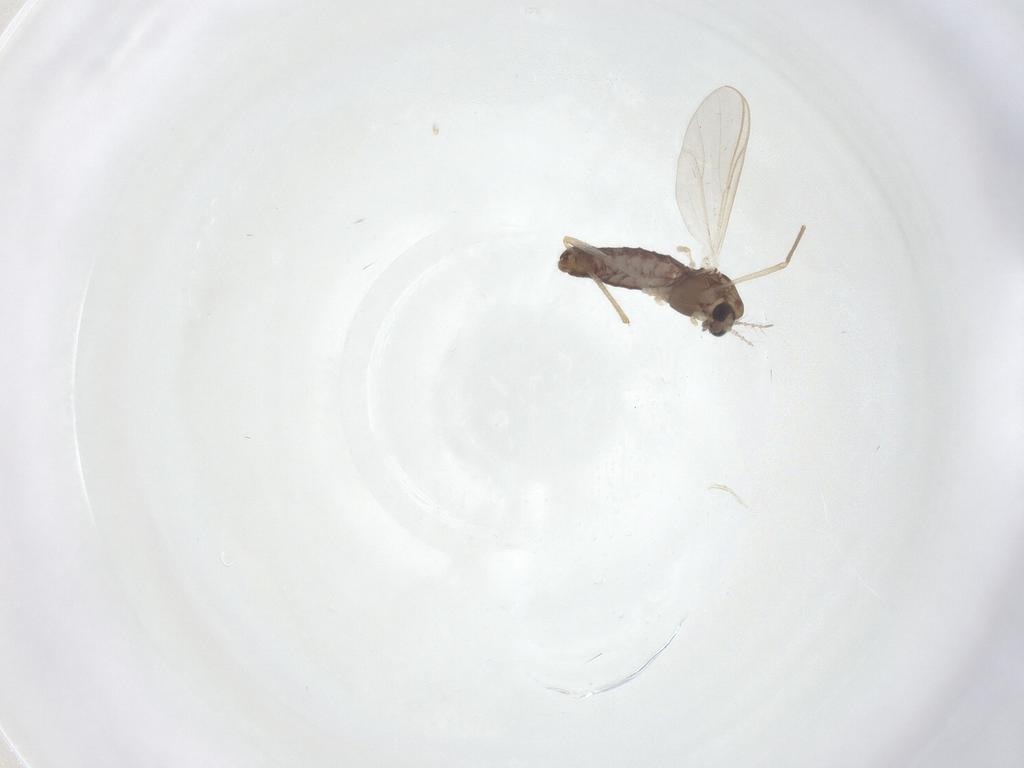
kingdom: Animalia
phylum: Arthropoda
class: Insecta
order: Diptera
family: Chironomidae
